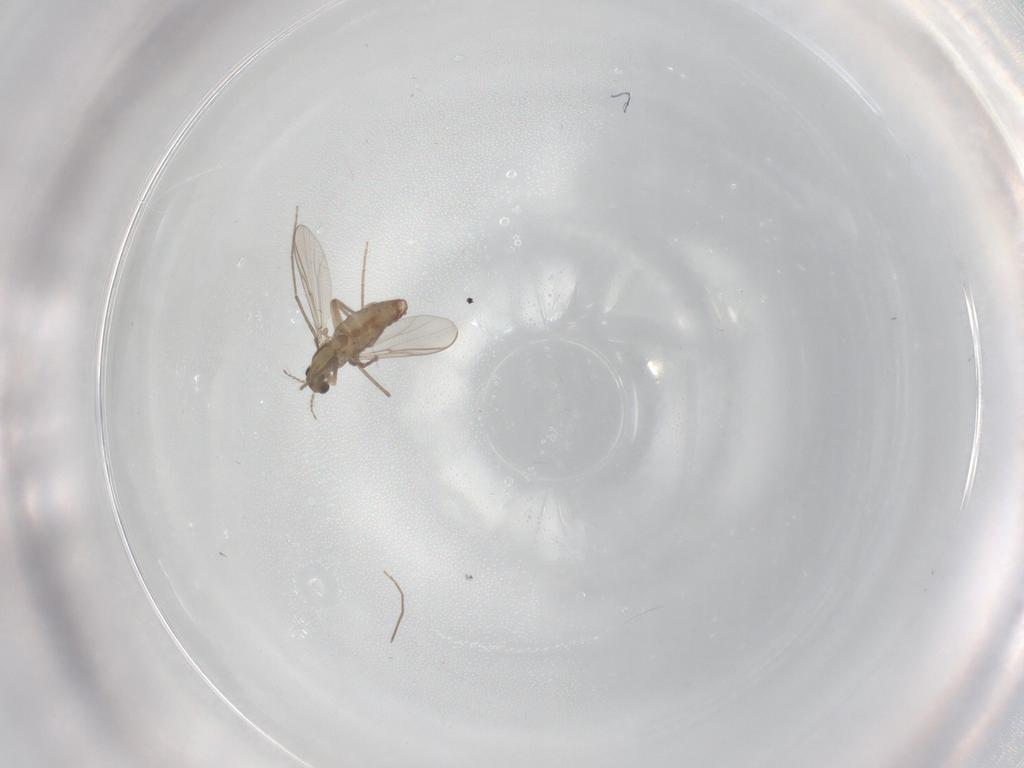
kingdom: Animalia
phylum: Arthropoda
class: Insecta
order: Diptera
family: Chironomidae
